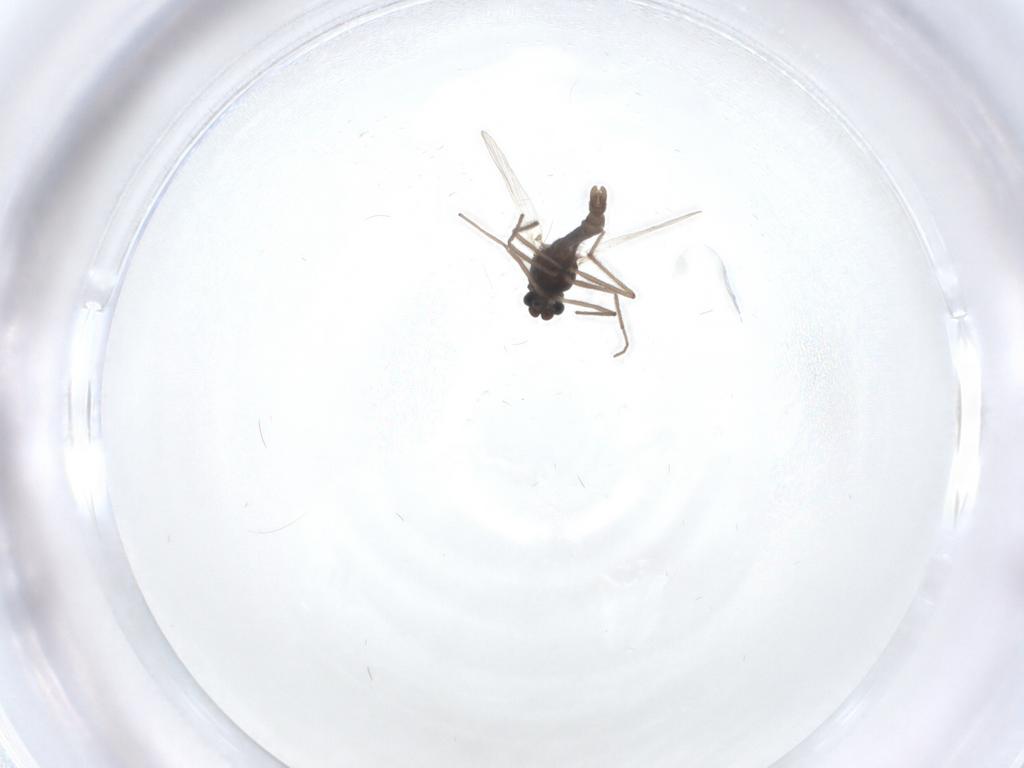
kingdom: Animalia
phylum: Arthropoda
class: Insecta
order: Diptera
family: Chironomidae
